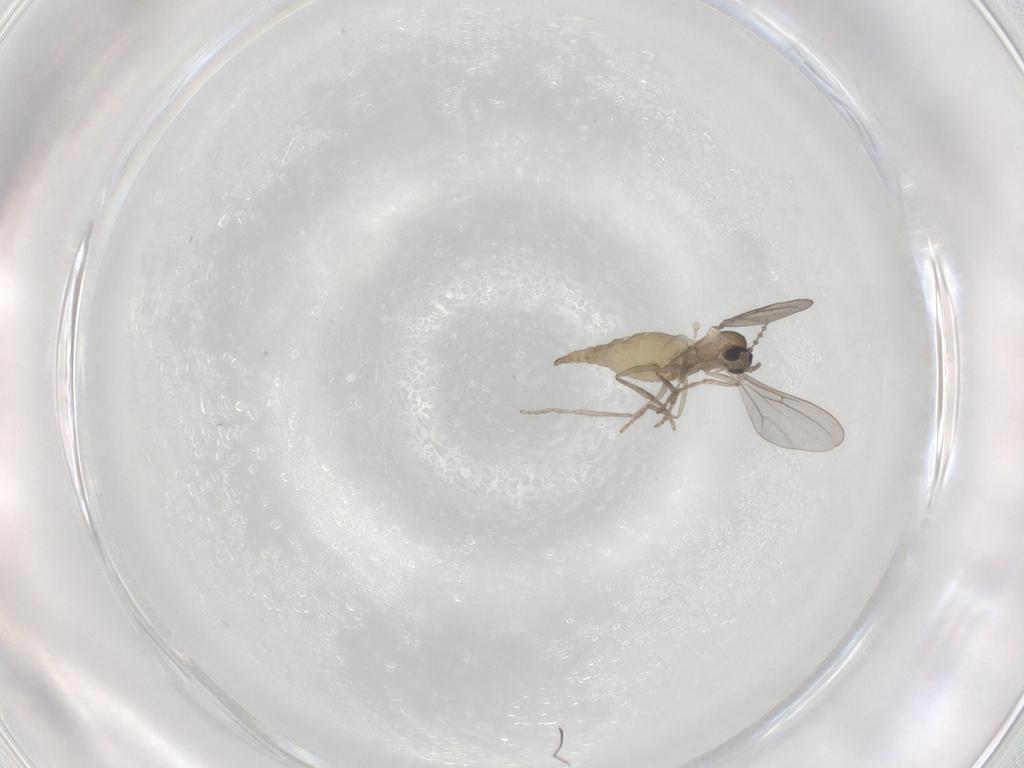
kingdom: Animalia
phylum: Arthropoda
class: Insecta
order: Diptera
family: Cecidomyiidae
